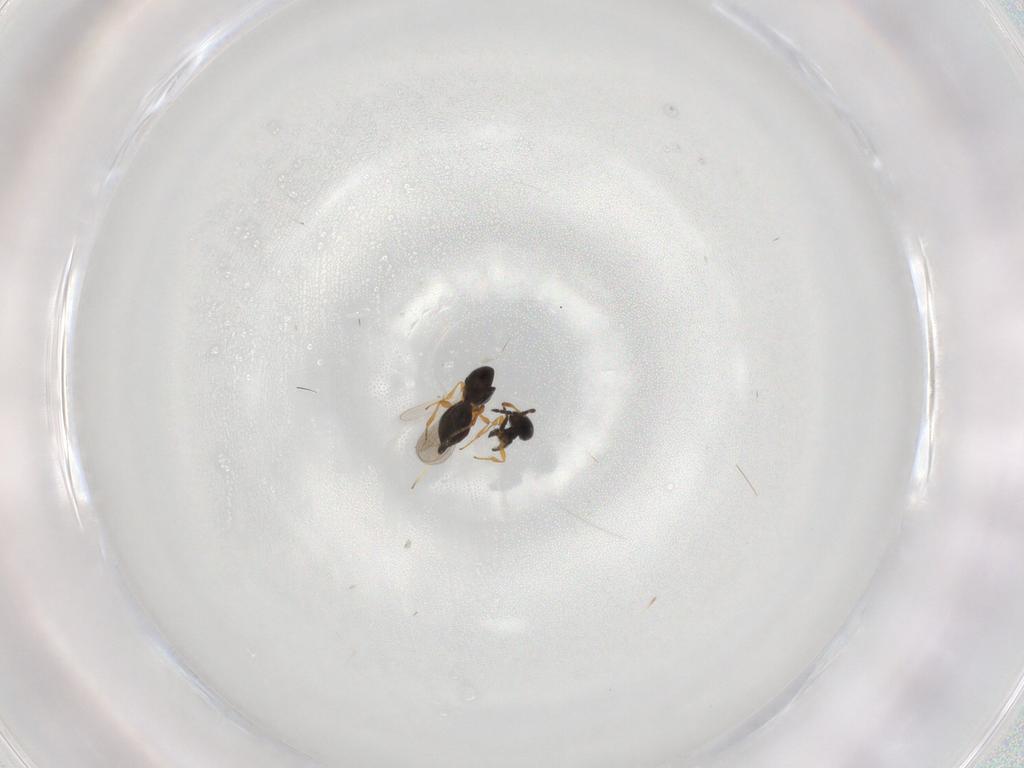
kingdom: Animalia
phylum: Arthropoda
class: Insecta
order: Hymenoptera
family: Platygastridae
